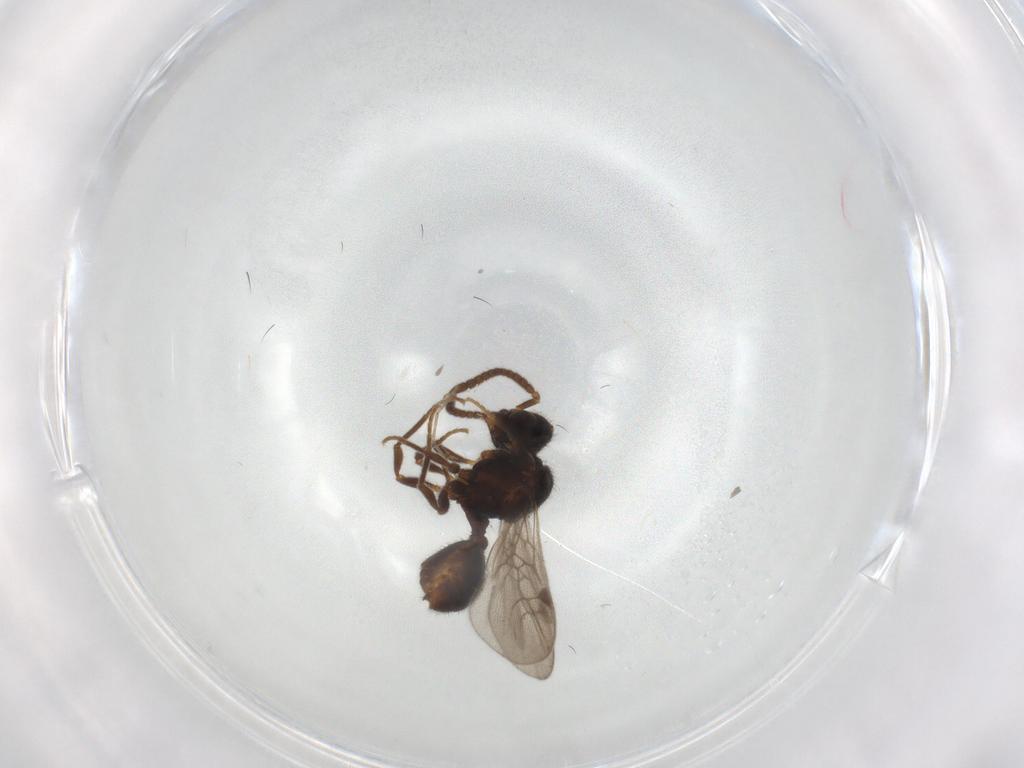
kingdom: Animalia
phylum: Arthropoda
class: Insecta
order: Hymenoptera
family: Formicidae
